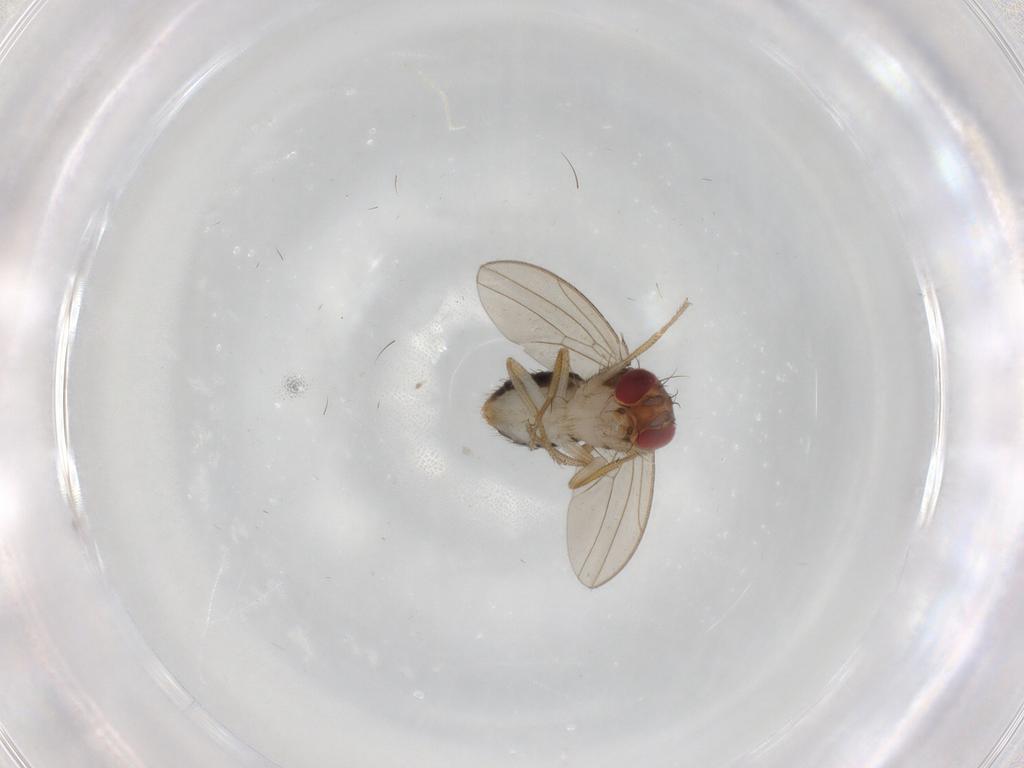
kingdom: Animalia
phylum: Arthropoda
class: Insecta
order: Diptera
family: Drosophilidae
